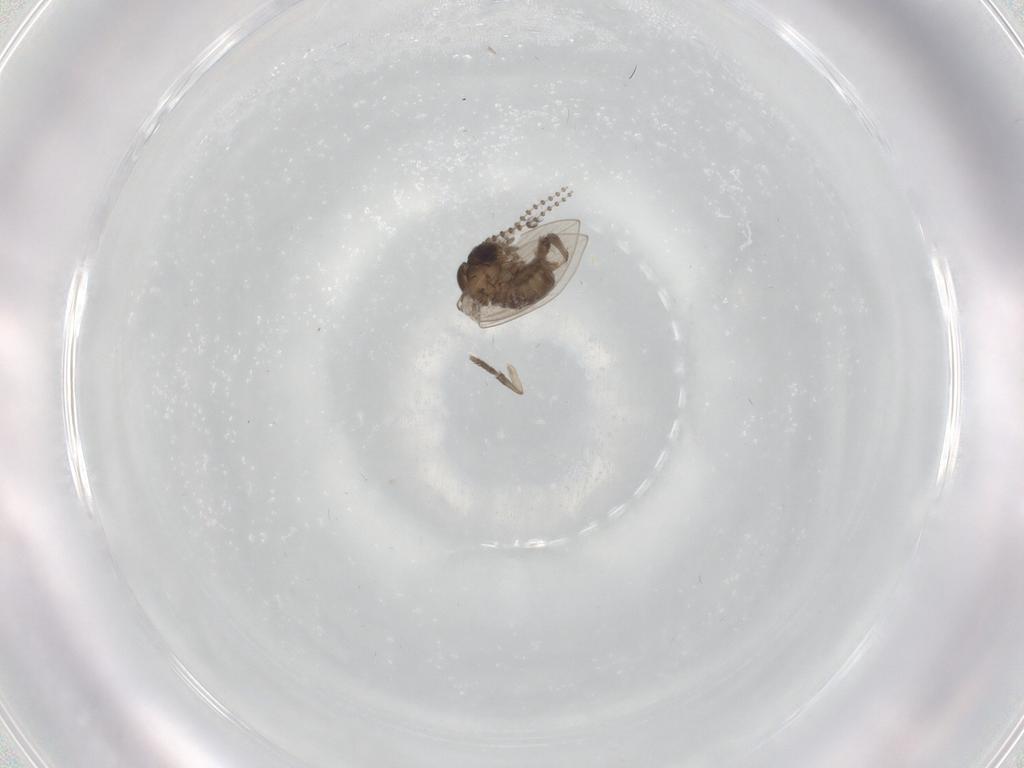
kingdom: Animalia
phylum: Arthropoda
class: Insecta
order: Diptera
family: Psychodidae
